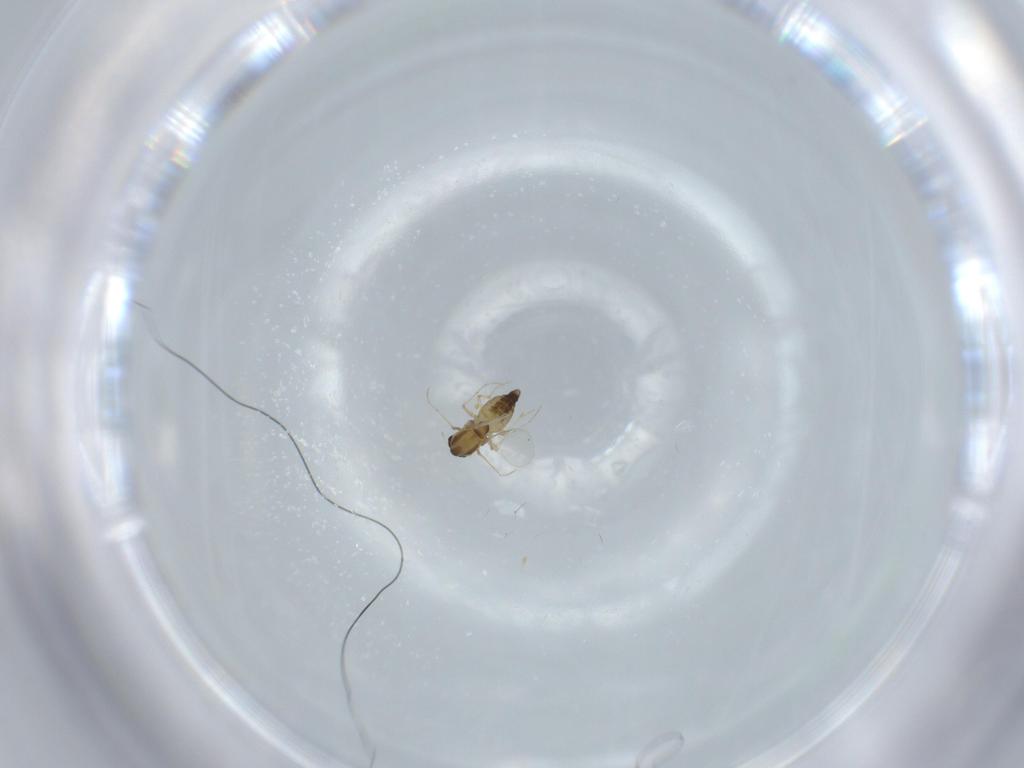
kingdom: Animalia
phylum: Arthropoda
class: Insecta
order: Diptera
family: Chironomidae
